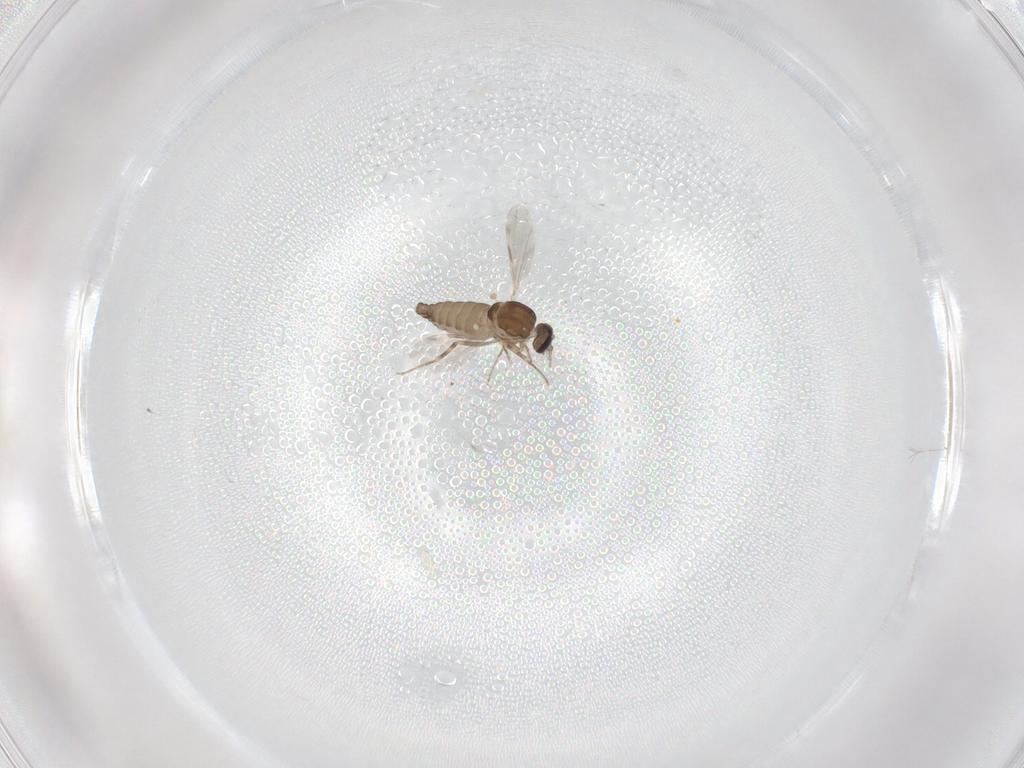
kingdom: Animalia
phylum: Arthropoda
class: Insecta
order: Diptera
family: Ceratopogonidae
